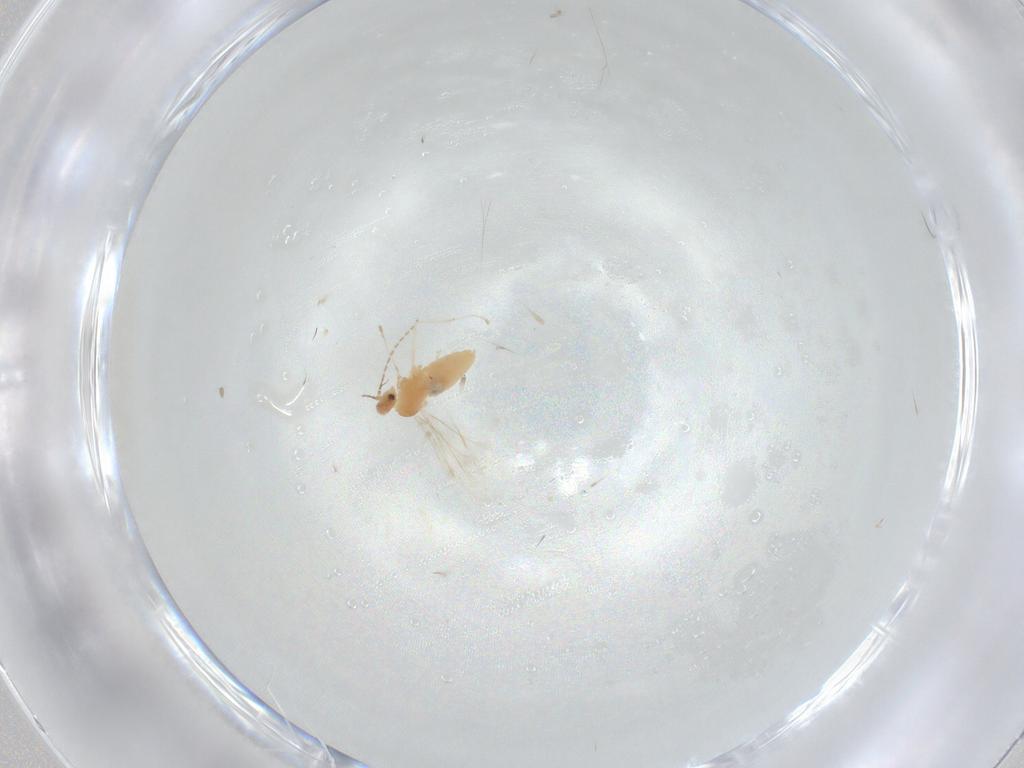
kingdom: Animalia
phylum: Arthropoda
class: Insecta
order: Diptera
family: Cecidomyiidae
